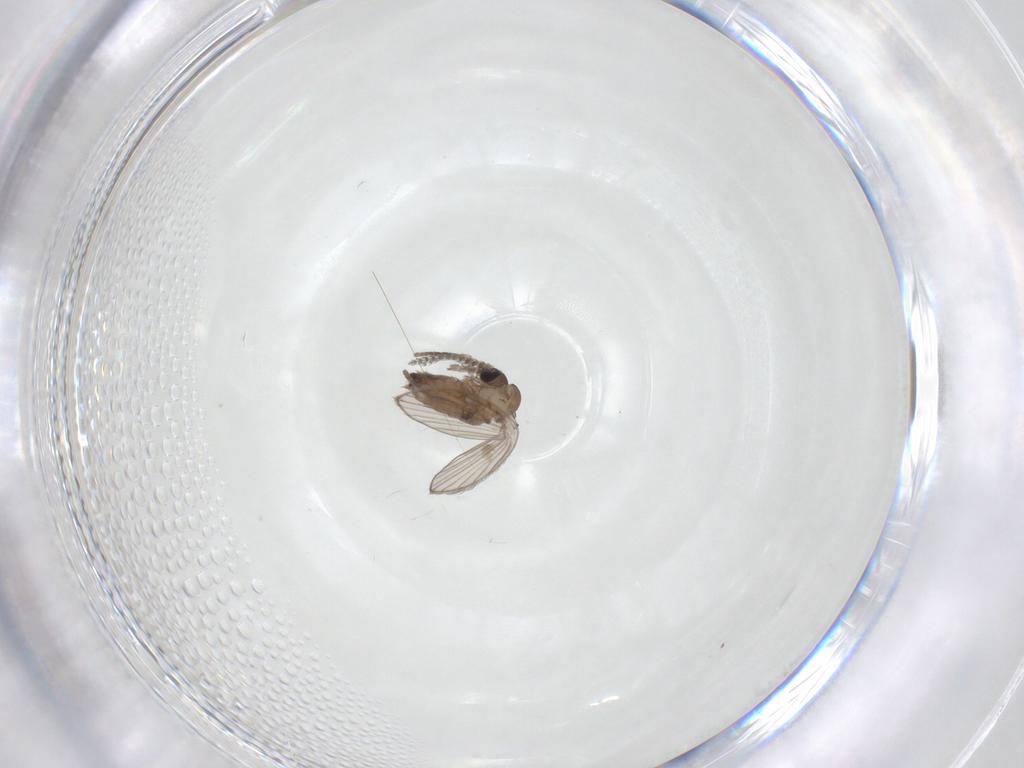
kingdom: Animalia
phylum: Arthropoda
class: Insecta
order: Diptera
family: Psychodidae
